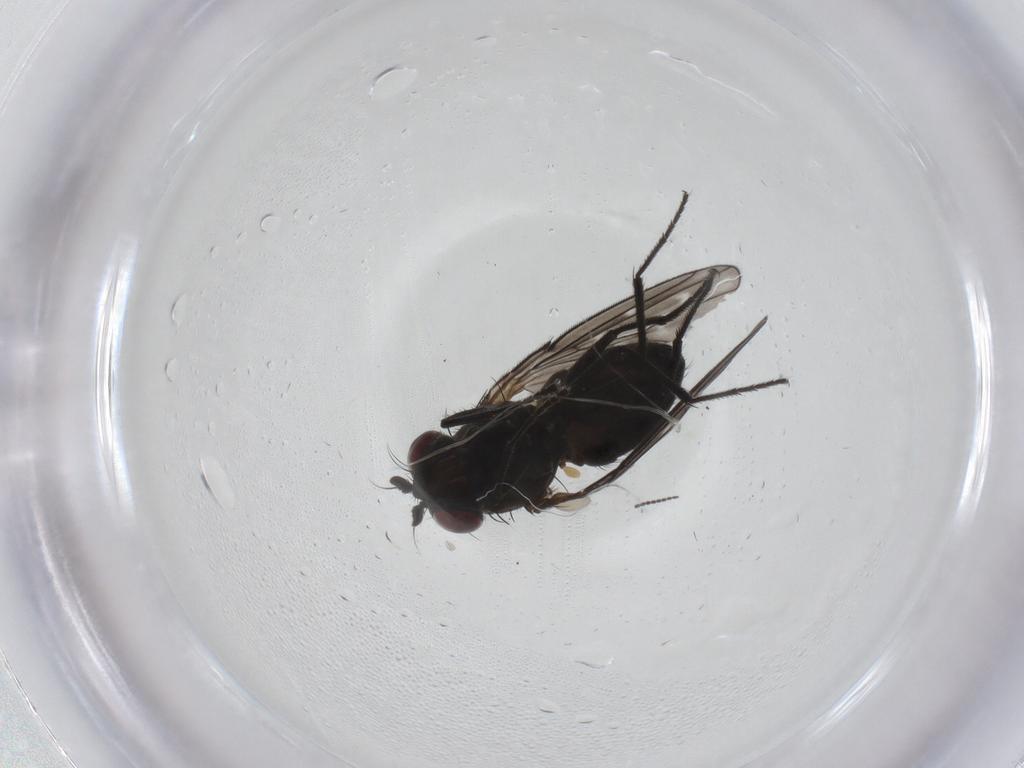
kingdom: Animalia
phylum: Arthropoda
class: Insecta
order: Diptera
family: Ephydridae
